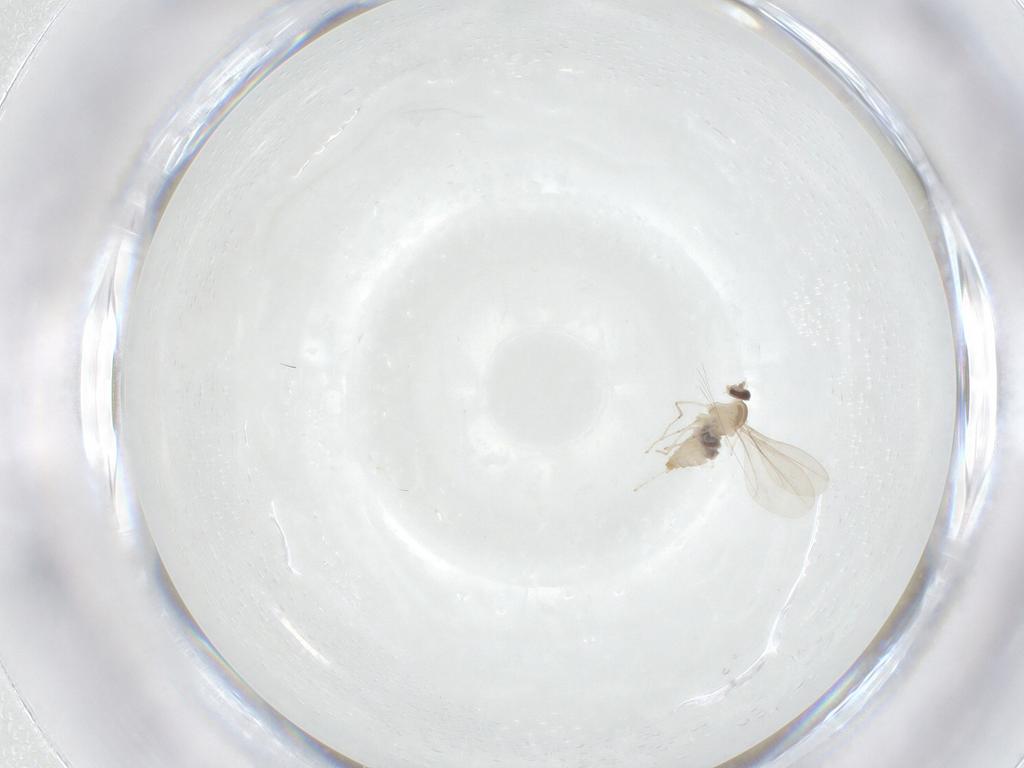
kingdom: Animalia
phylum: Arthropoda
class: Insecta
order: Diptera
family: Cecidomyiidae
